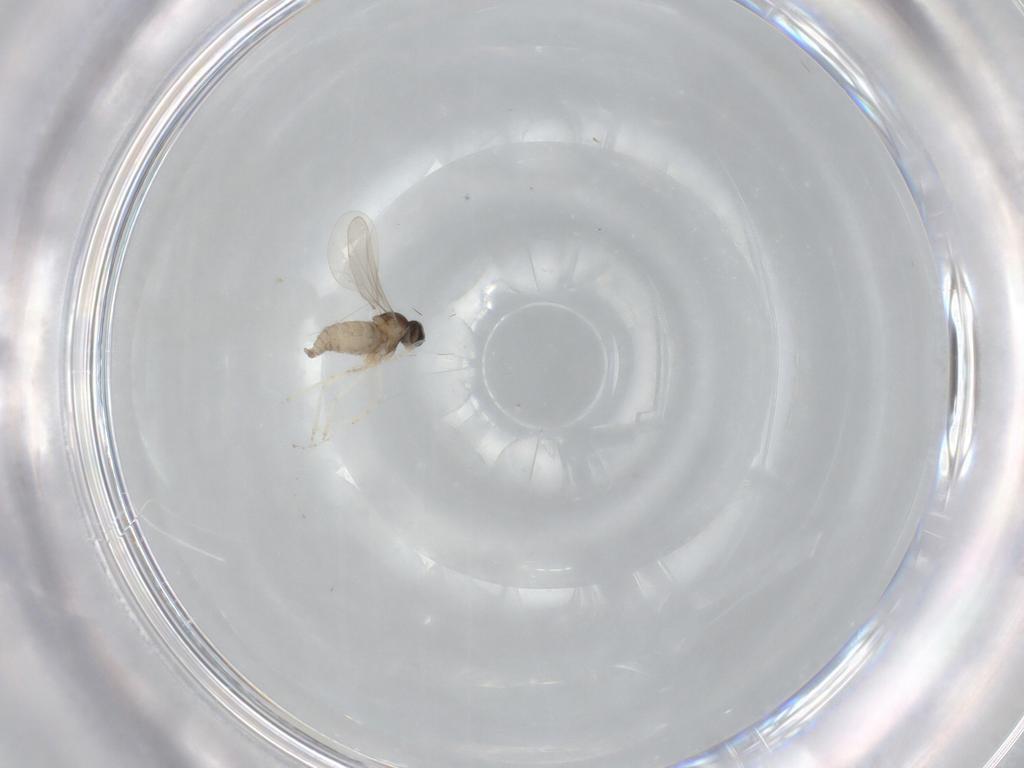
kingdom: Animalia
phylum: Arthropoda
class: Insecta
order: Diptera
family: Cecidomyiidae
